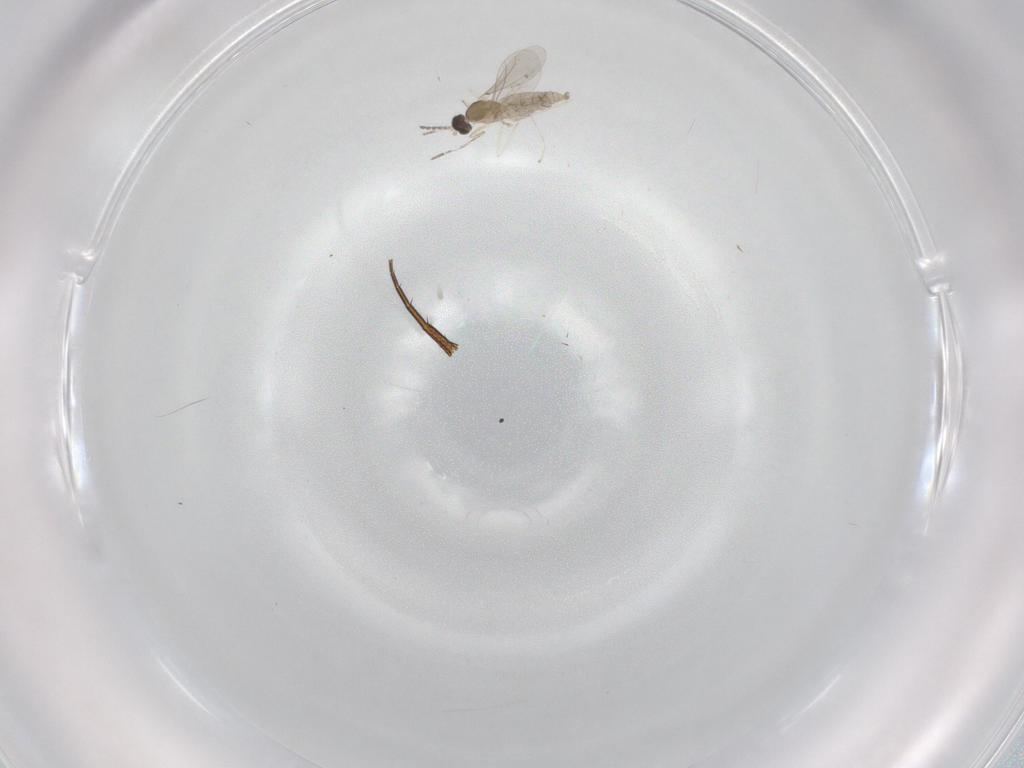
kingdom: Animalia
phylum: Arthropoda
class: Insecta
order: Diptera
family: Cecidomyiidae
